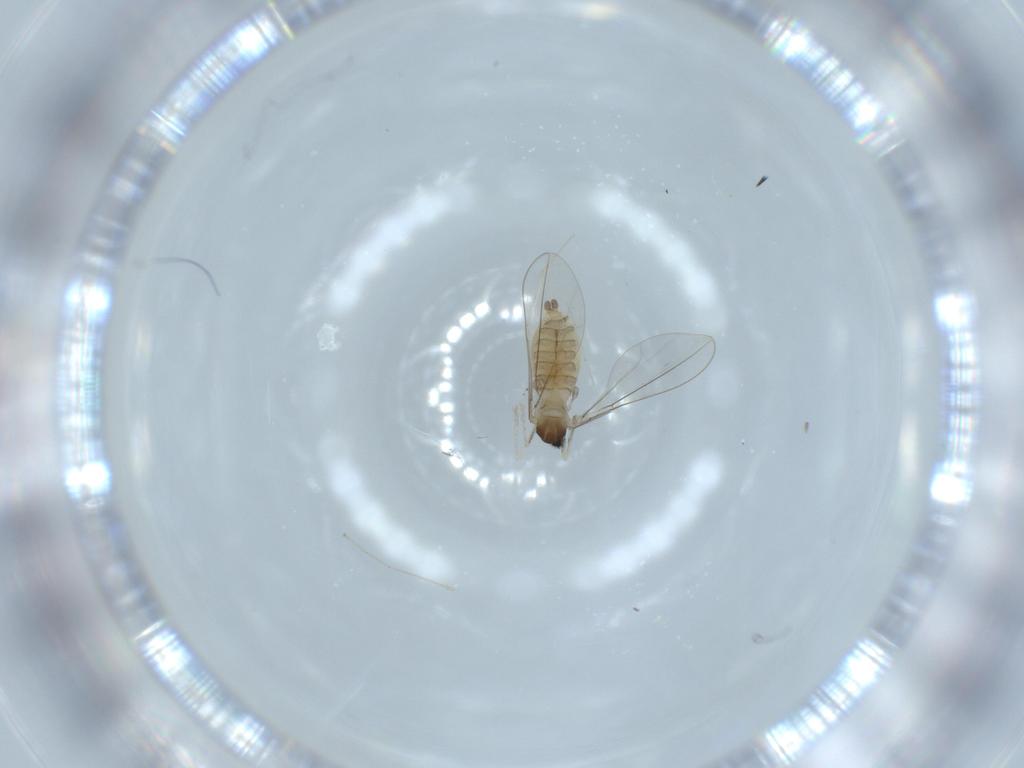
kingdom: Animalia
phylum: Arthropoda
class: Insecta
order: Diptera
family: Cecidomyiidae
